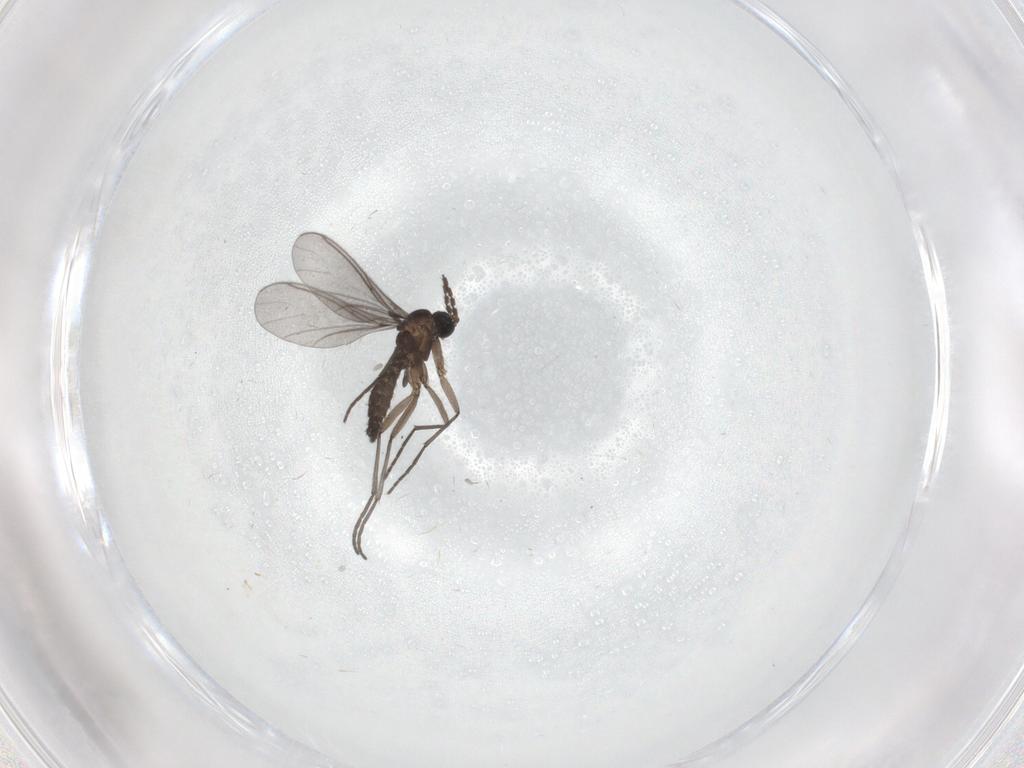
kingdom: Animalia
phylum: Arthropoda
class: Insecta
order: Diptera
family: Sciaridae
